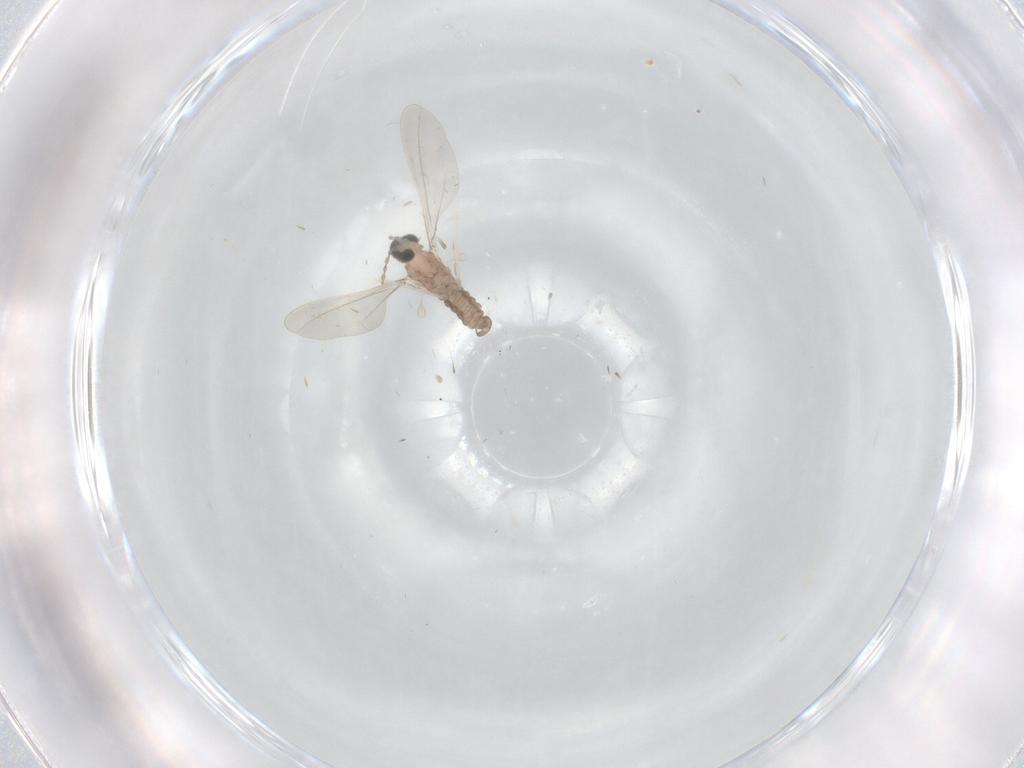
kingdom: Animalia
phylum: Arthropoda
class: Insecta
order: Diptera
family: Cecidomyiidae
